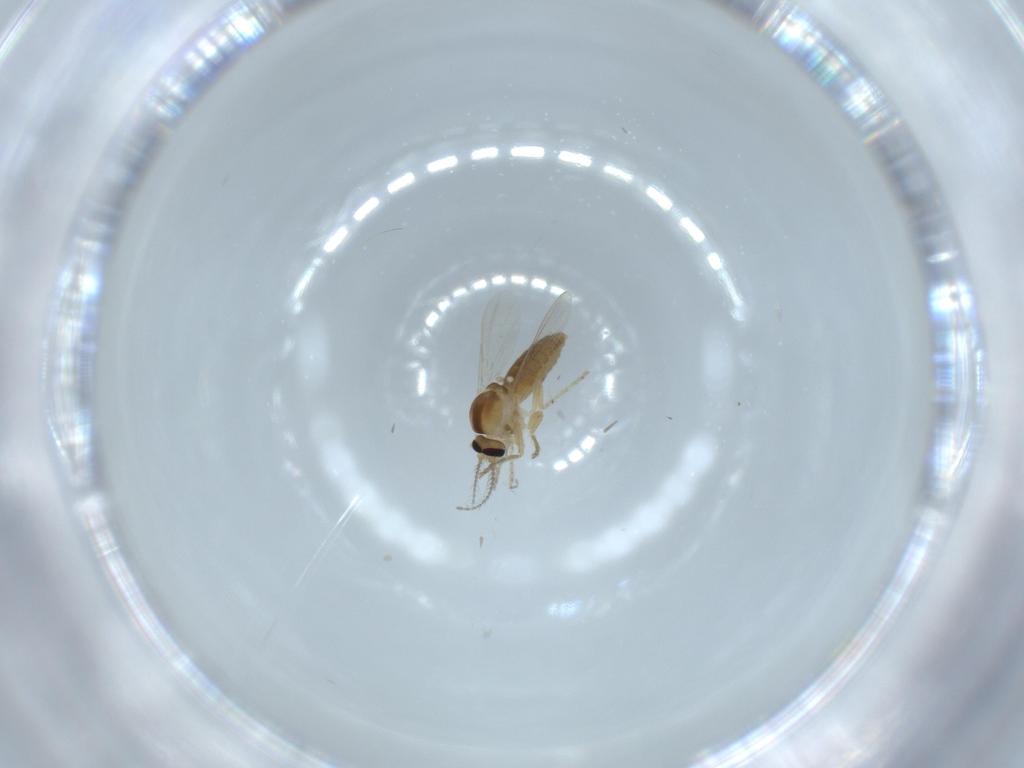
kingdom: Animalia
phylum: Arthropoda
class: Insecta
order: Diptera
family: Ceratopogonidae
